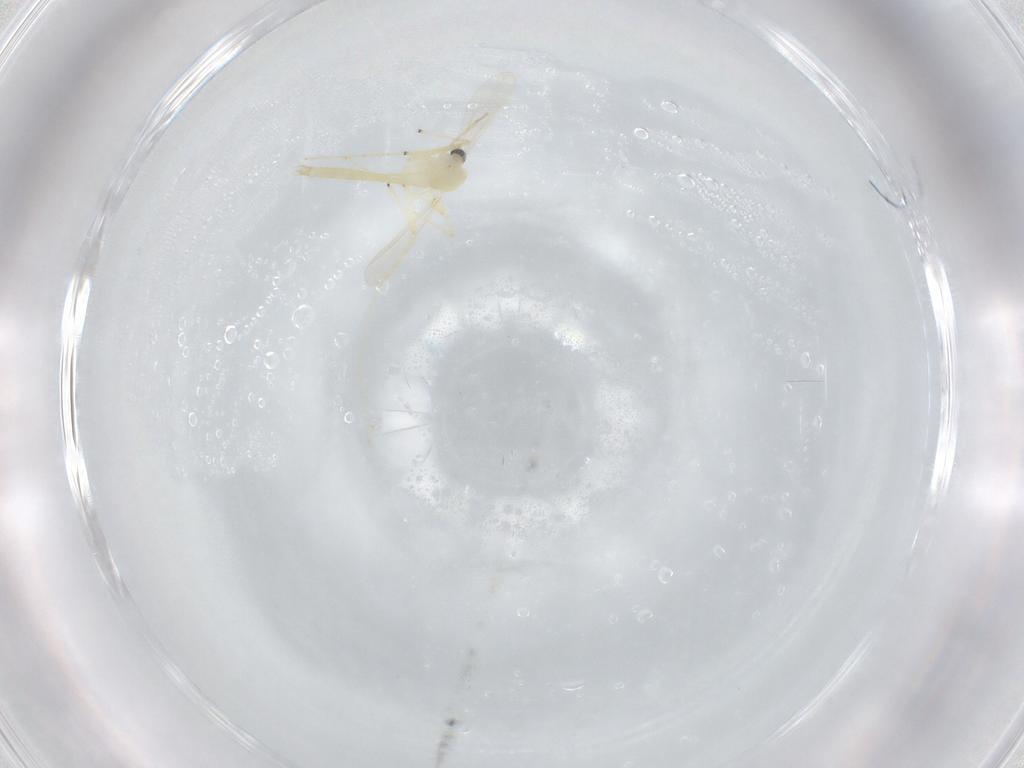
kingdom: Animalia
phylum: Arthropoda
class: Insecta
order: Diptera
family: Chironomidae
